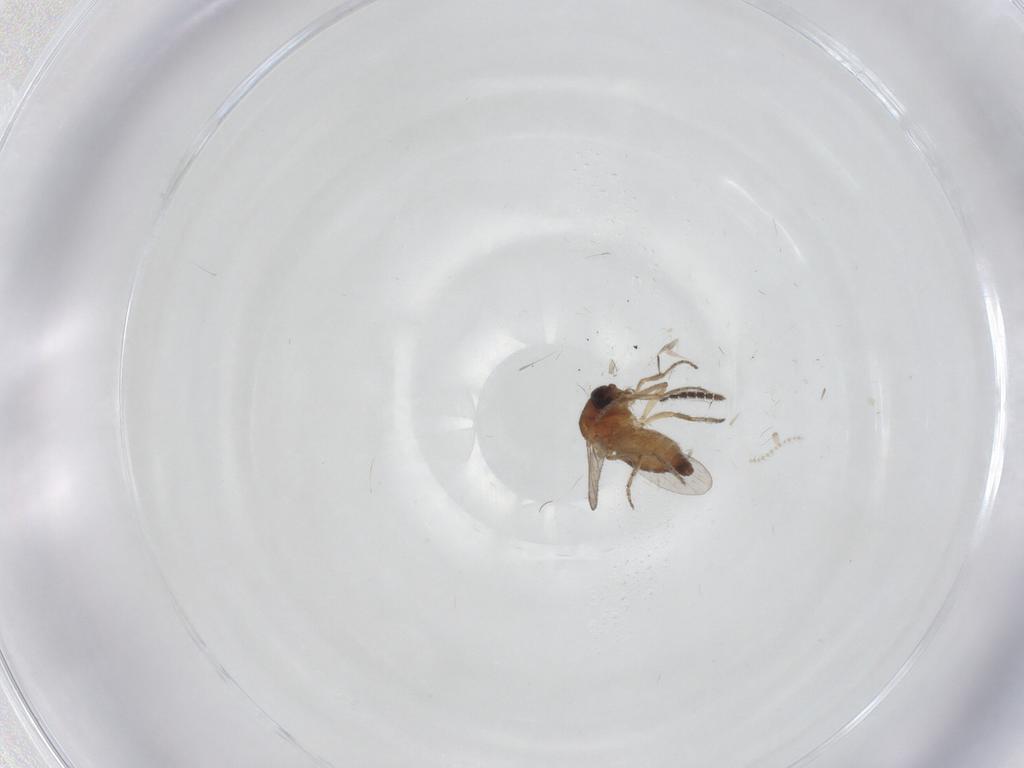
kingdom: Animalia
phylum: Arthropoda
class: Insecta
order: Diptera
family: Ceratopogonidae
